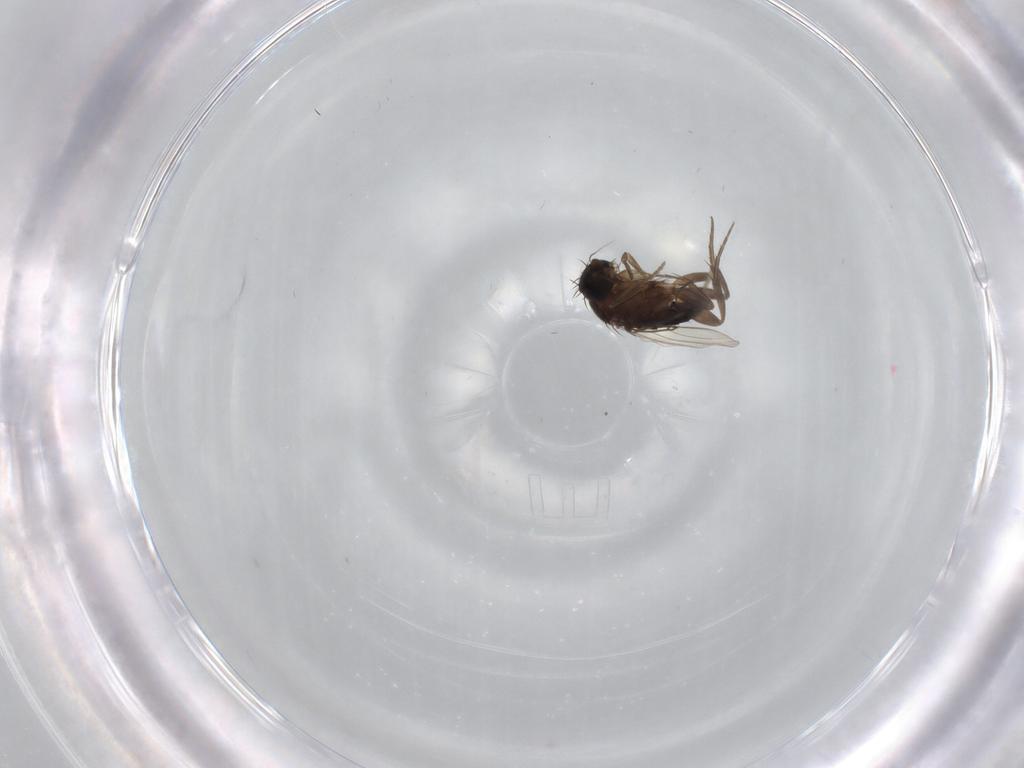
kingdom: Animalia
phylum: Arthropoda
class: Insecta
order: Diptera
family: Phoridae
